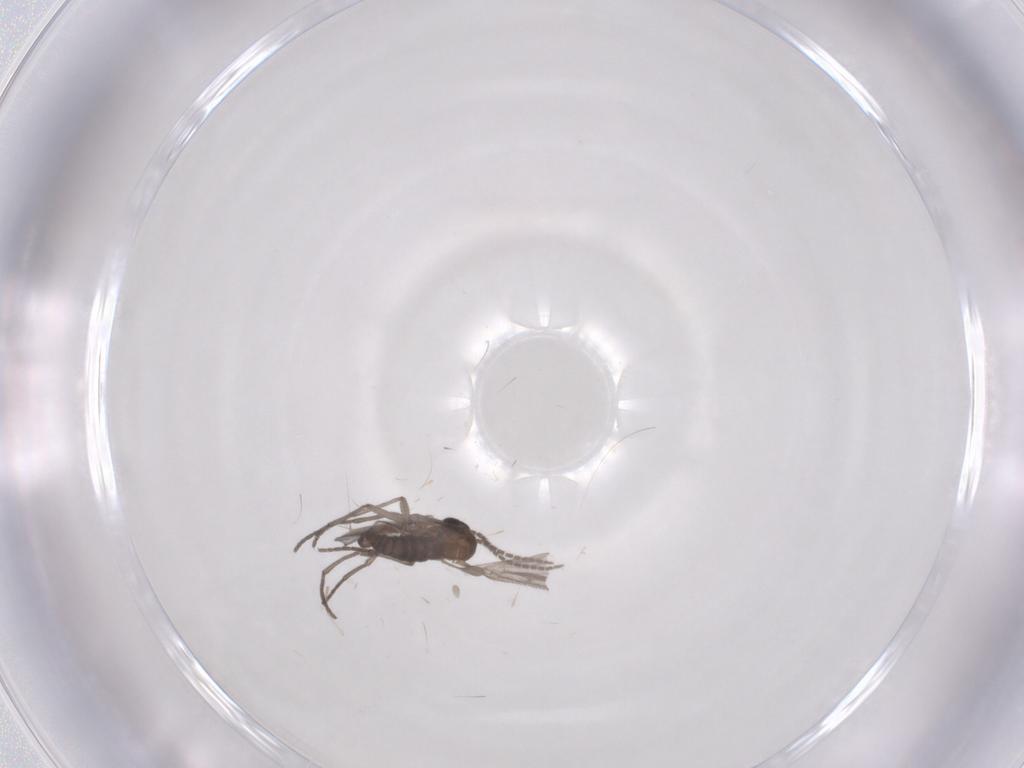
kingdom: Animalia
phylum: Arthropoda
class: Insecta
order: Diptera
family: Sciaridae
